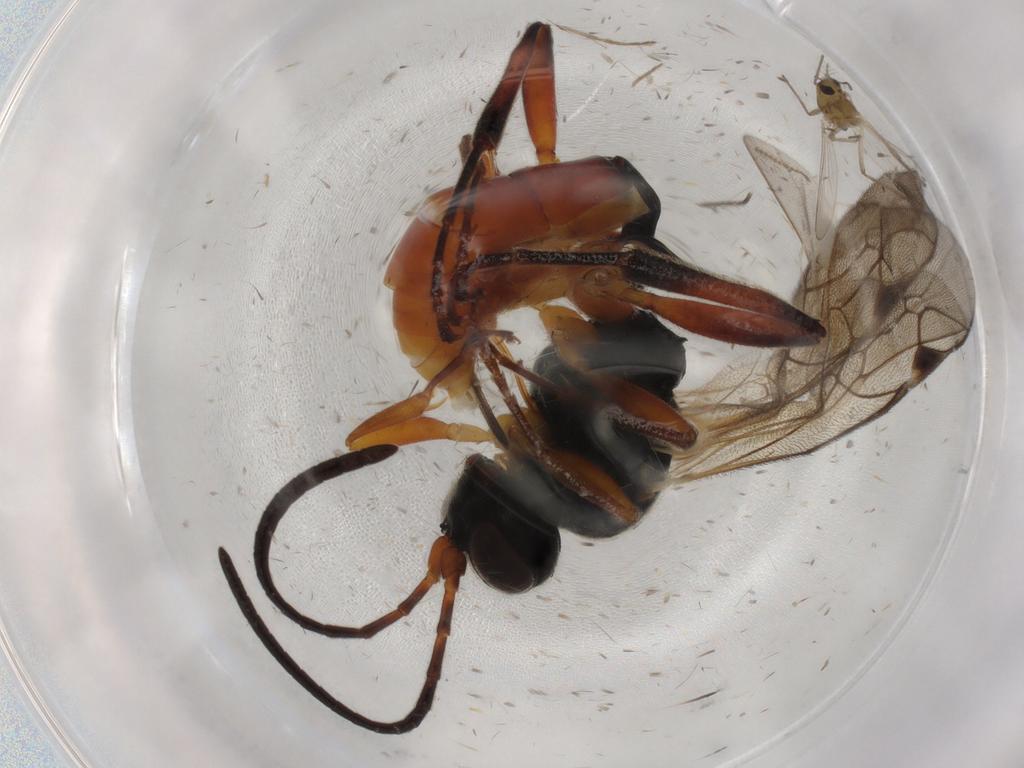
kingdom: Animalia
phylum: Arthropoda
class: Insecta
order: Hymenoptera
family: Ichneumonidae
